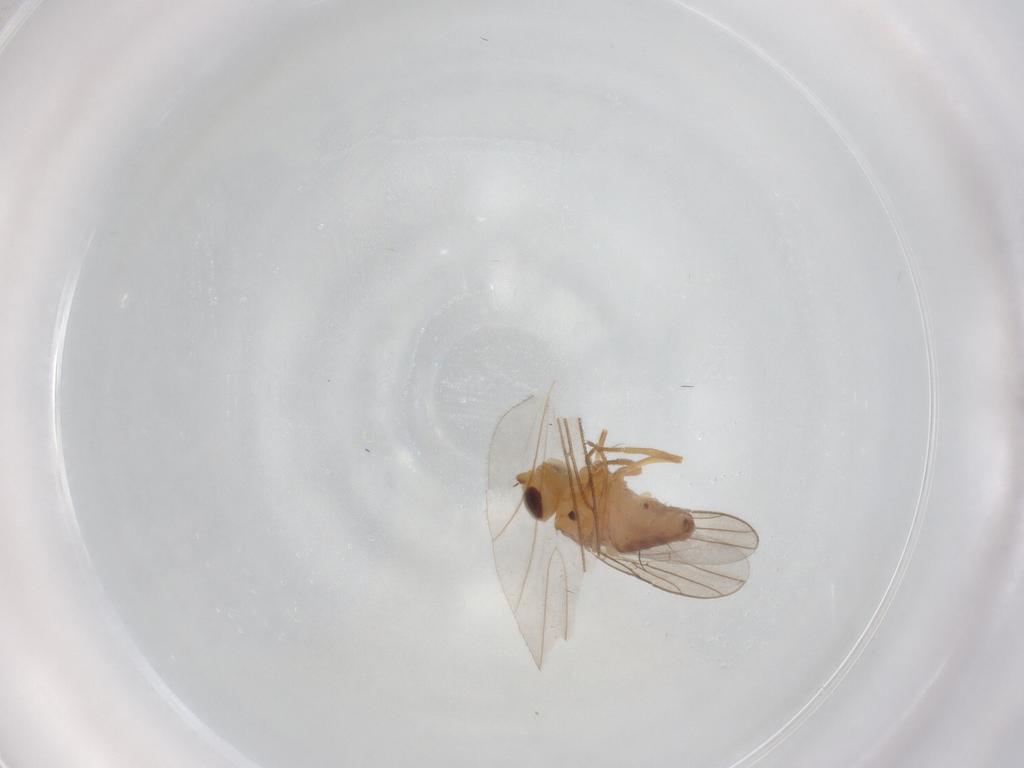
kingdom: Animalia
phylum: Arthropoda
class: Insecta
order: Diptera
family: Chloropidae
